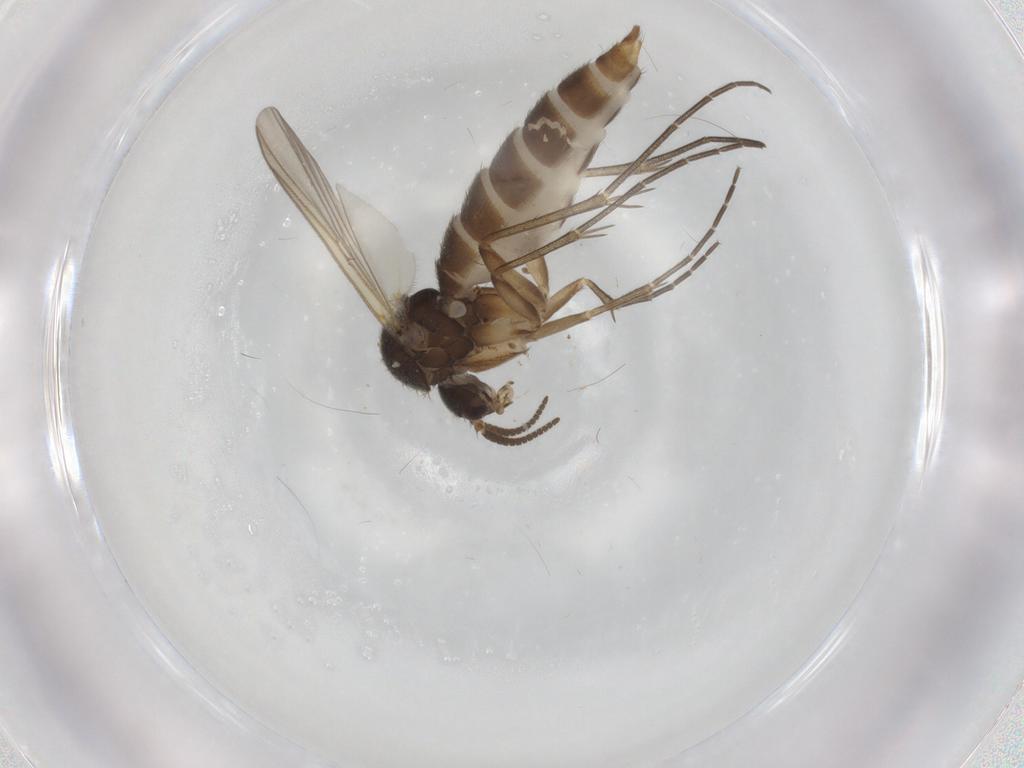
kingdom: Animalia
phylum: Arthropoda
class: Insecta
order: Diptera
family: Mycetophilidae
